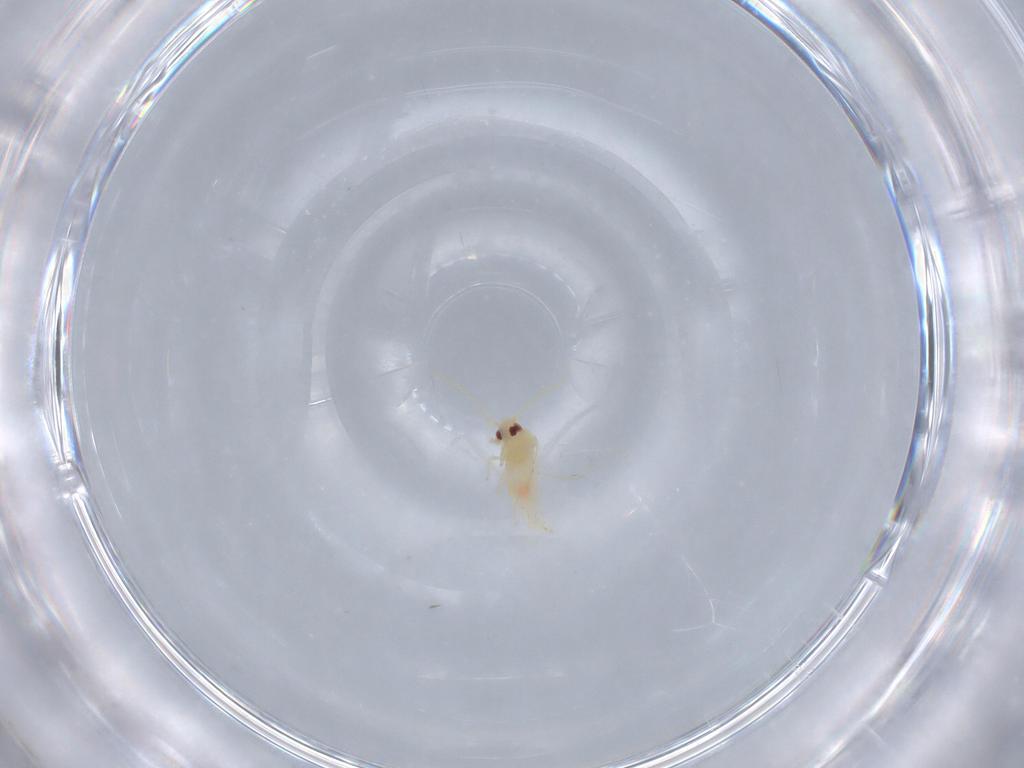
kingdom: Animalia
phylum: Arthropoda
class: Insecta
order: Hemiptera
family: Aleyrodidae
